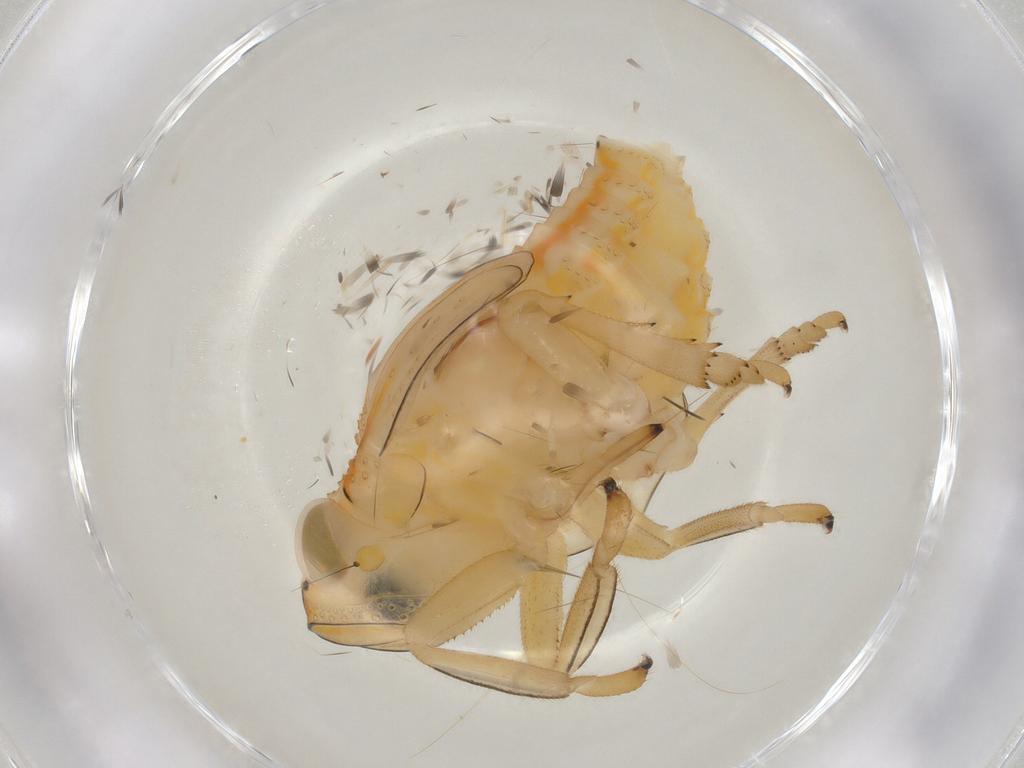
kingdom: Animalia
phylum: Arthropoda
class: Insecta
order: Hemiptera
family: Issidae
